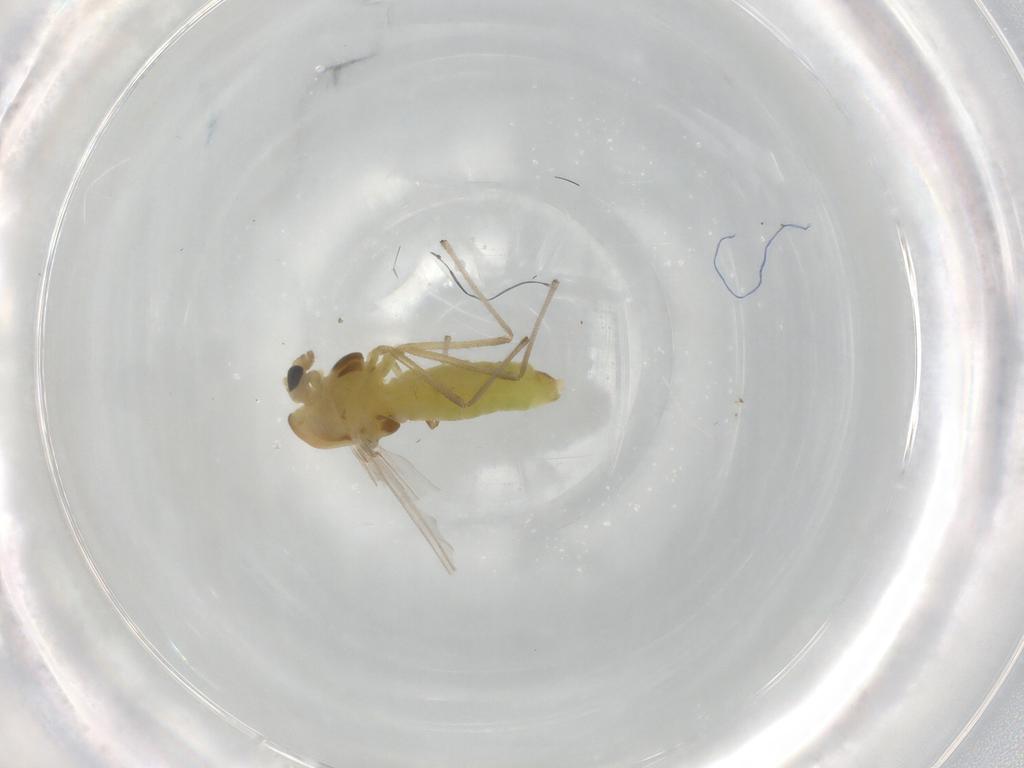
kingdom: Animalia
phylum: Arthropoda
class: Insecta
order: Diptera
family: Chironomidae
